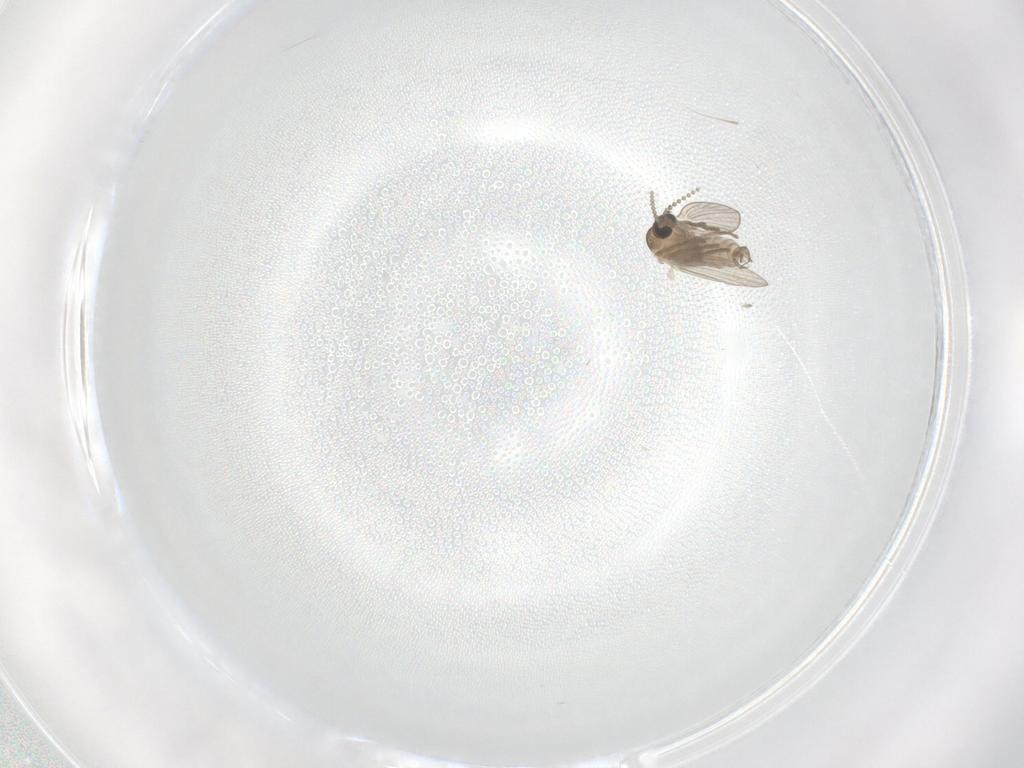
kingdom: Animalia
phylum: Arthropoda
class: Insecta
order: Diptera
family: Psychodidae
